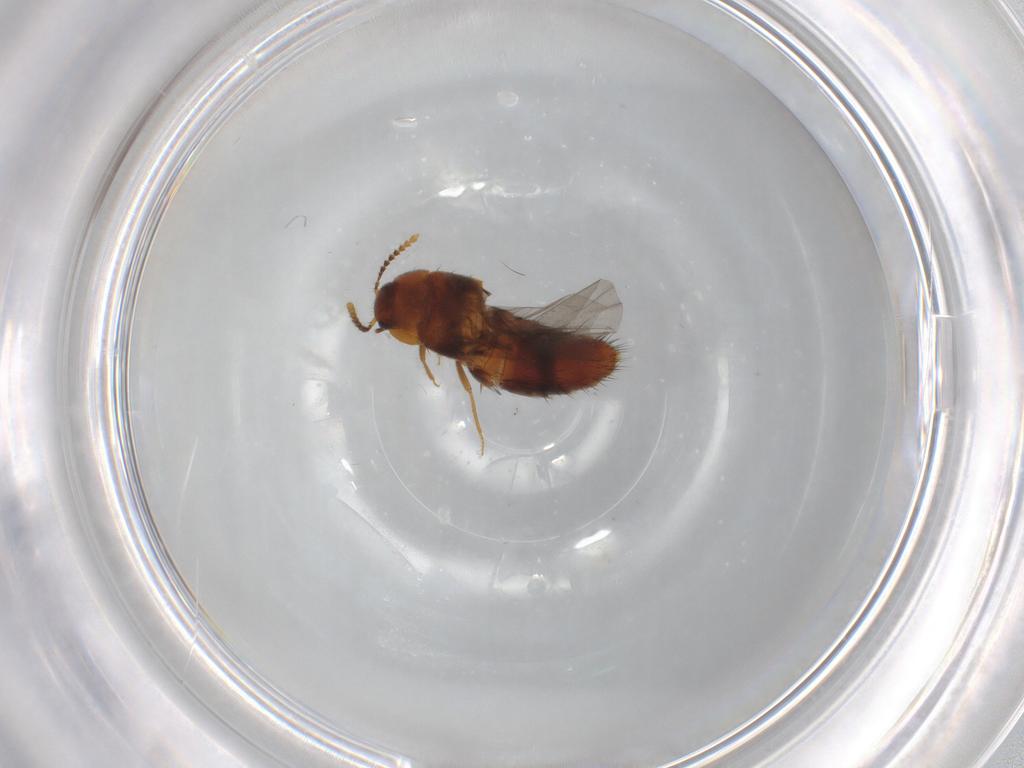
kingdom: Animalia
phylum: Arthropoda
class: Insecta
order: Coleoptera
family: Staphylinidae
